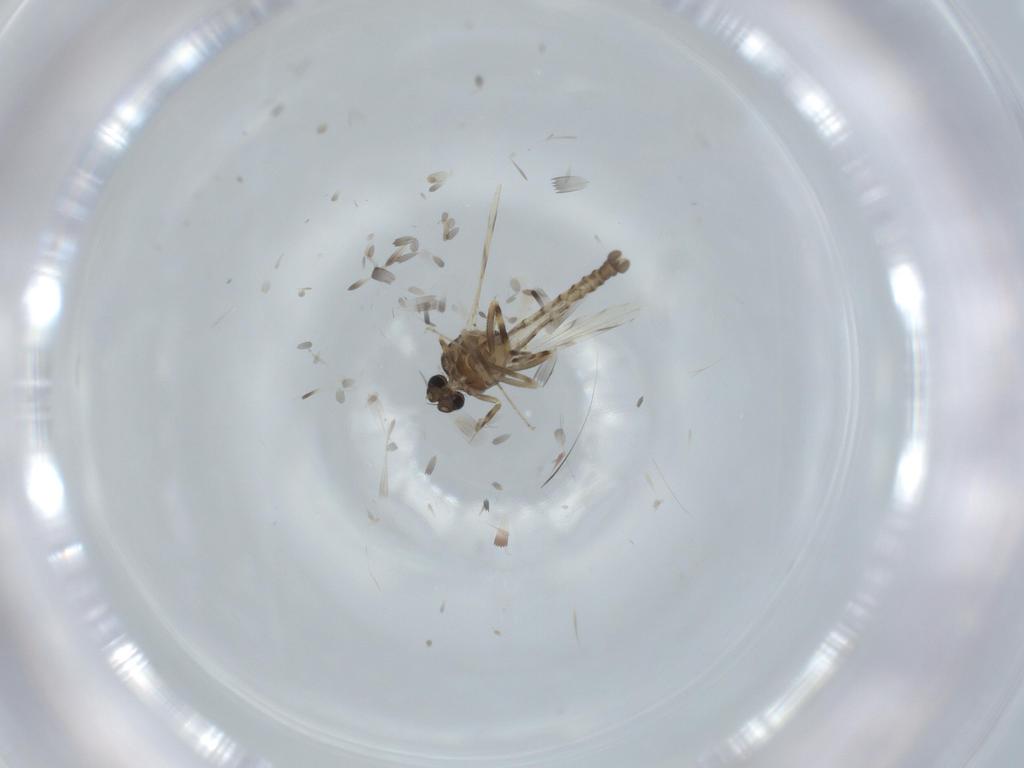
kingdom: Animalia
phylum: Arthropoda
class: Insecta
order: Diptera
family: Ceratopogonidae
